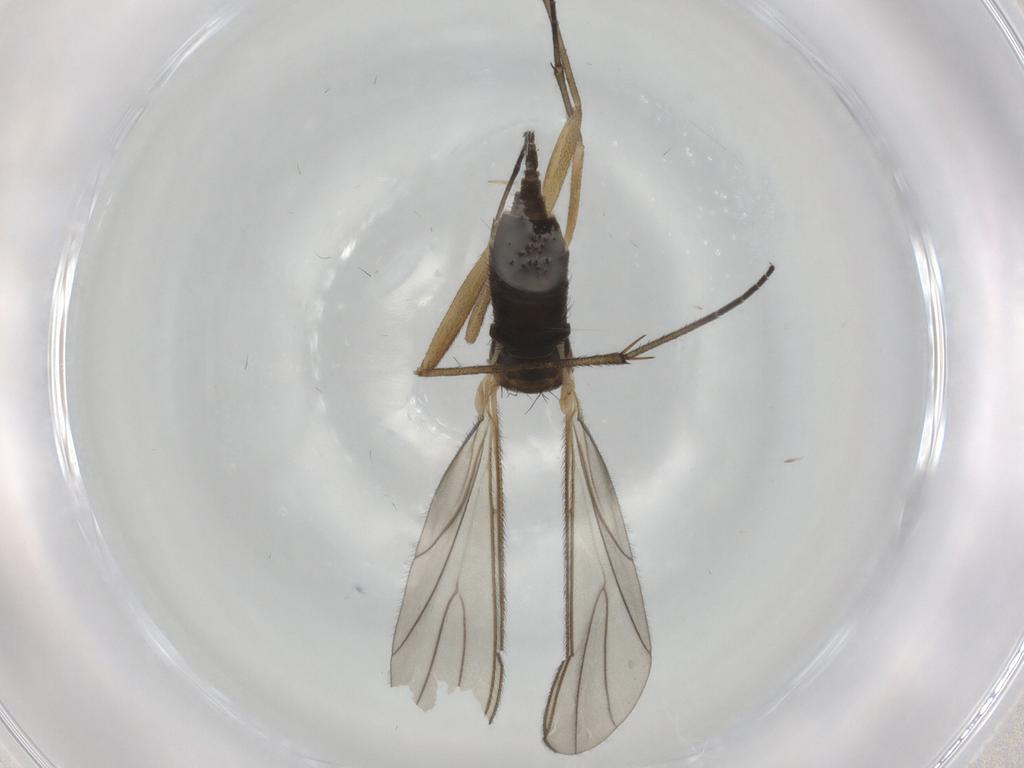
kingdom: Animalia
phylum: Arthropoda
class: Insecta
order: Diptera
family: Sciaridae
